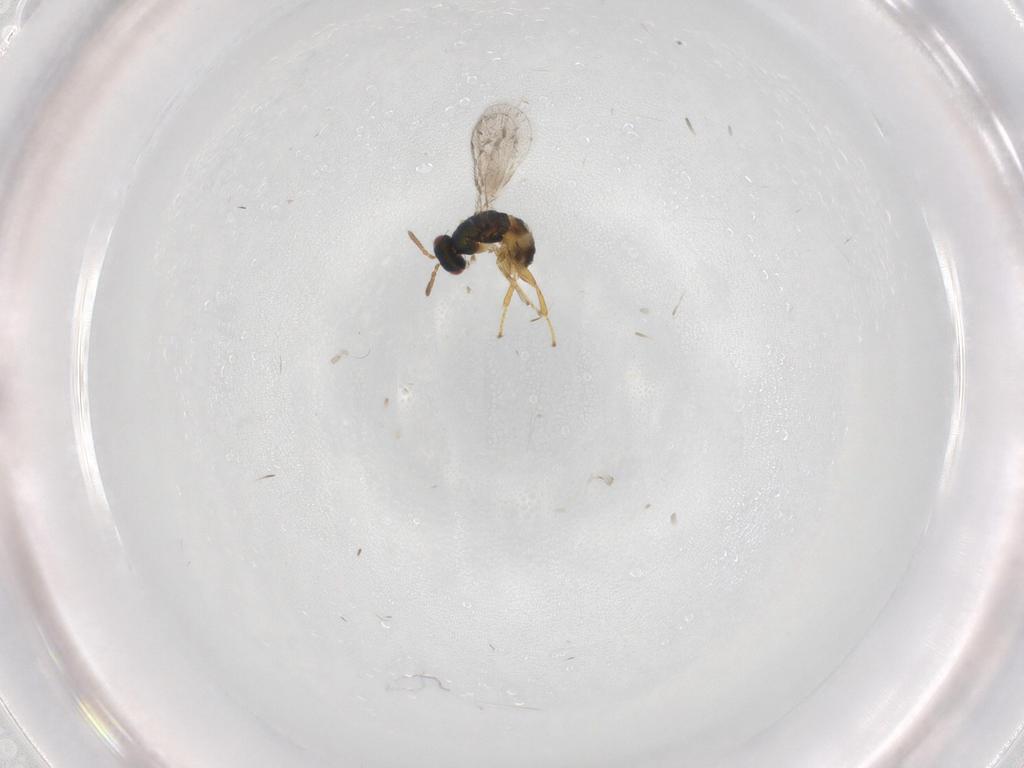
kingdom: Animalia
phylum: Arthropoda
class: Insecta
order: Hymenoptera
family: Torymidae
